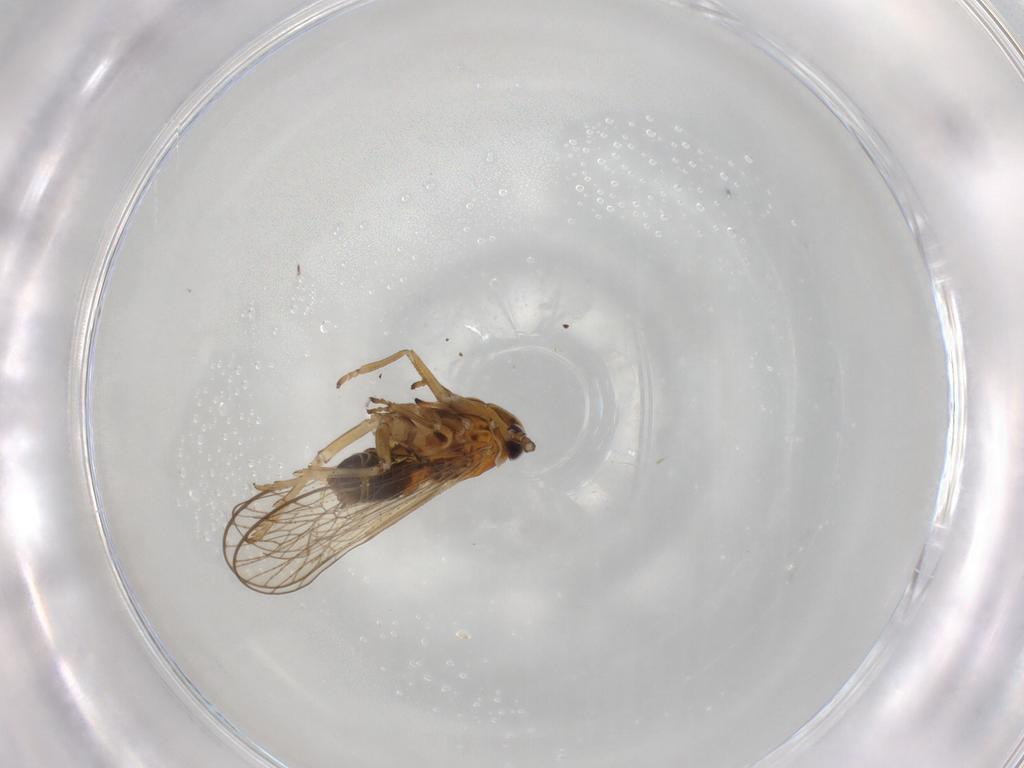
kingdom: Animalia
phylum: Arthropoda
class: Insecta
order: Hemiptera
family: Delphacidae
